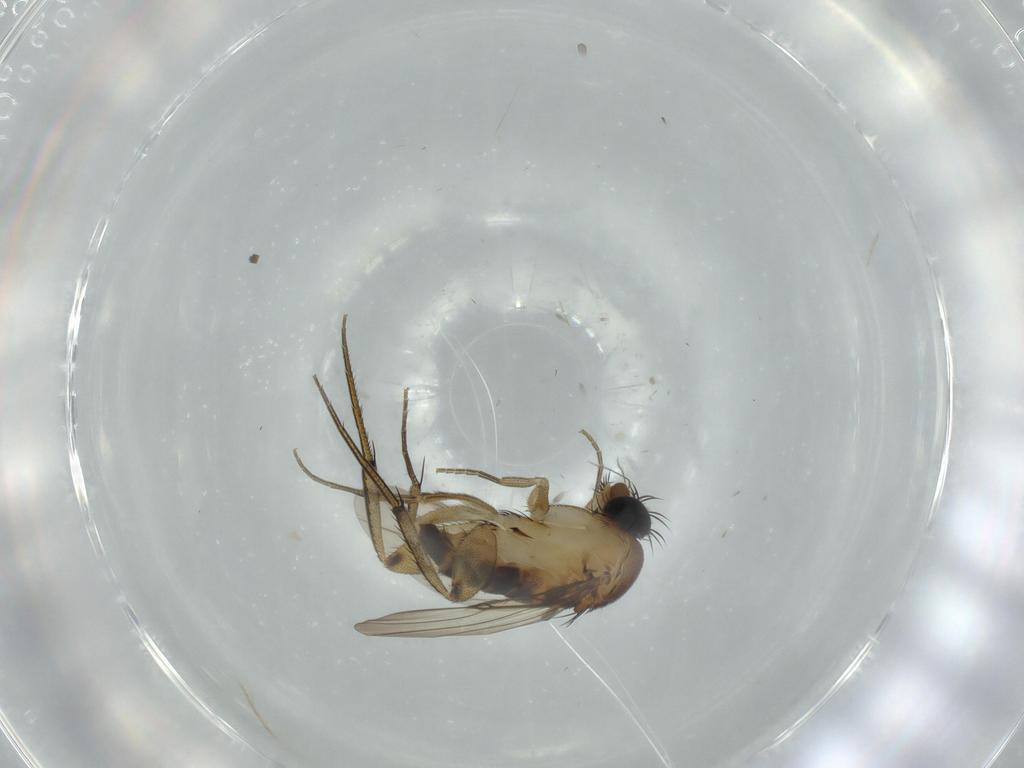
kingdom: Animalia
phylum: Arthropoda
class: Insecta
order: Diptera
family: Phoridae
